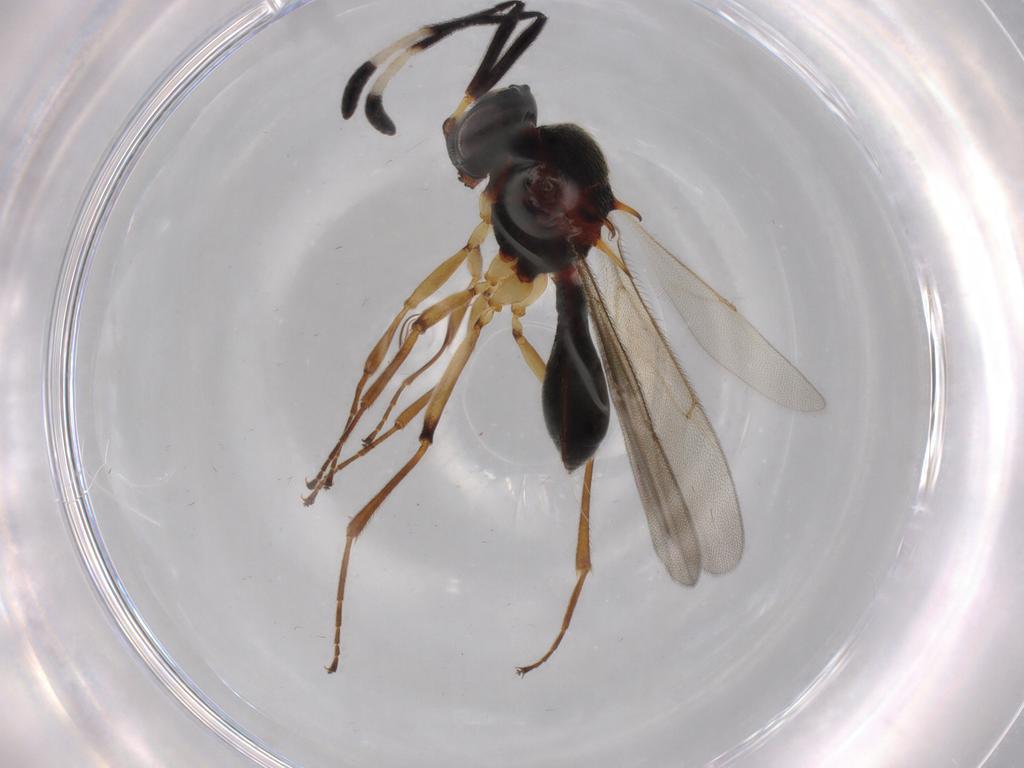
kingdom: Animalia
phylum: Arthropoda
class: Insecta
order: Hymenoptera
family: Scelionidae
